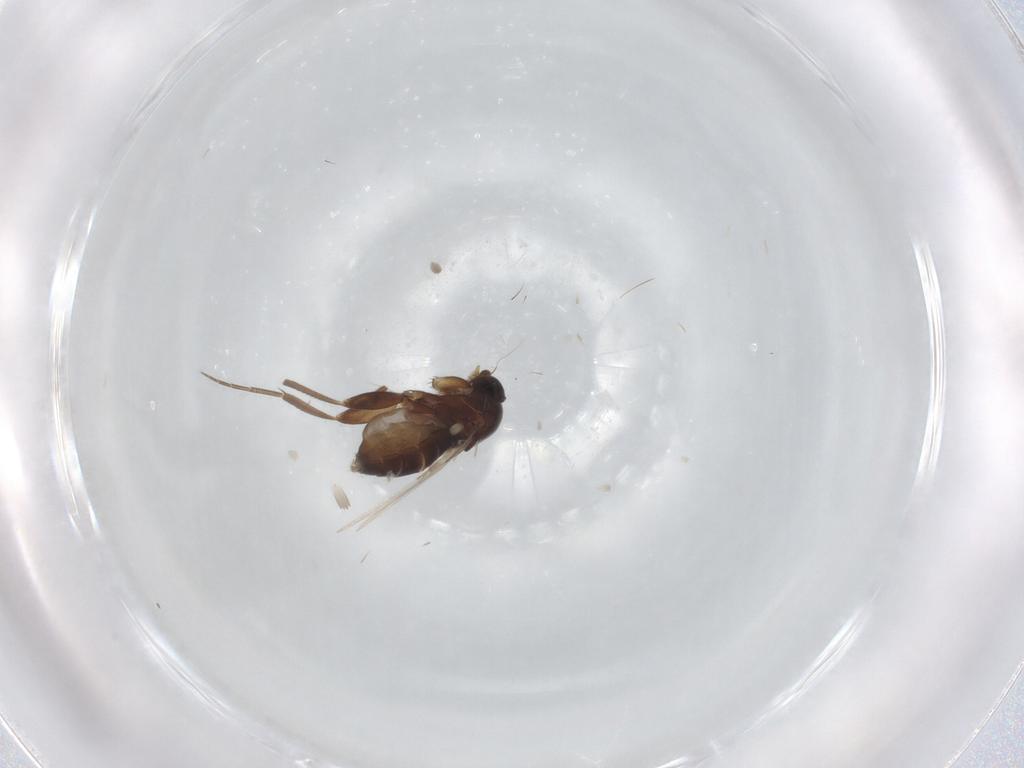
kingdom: Animalia
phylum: Arthropoda
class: Insecta
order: Diptera
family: Phoridae
